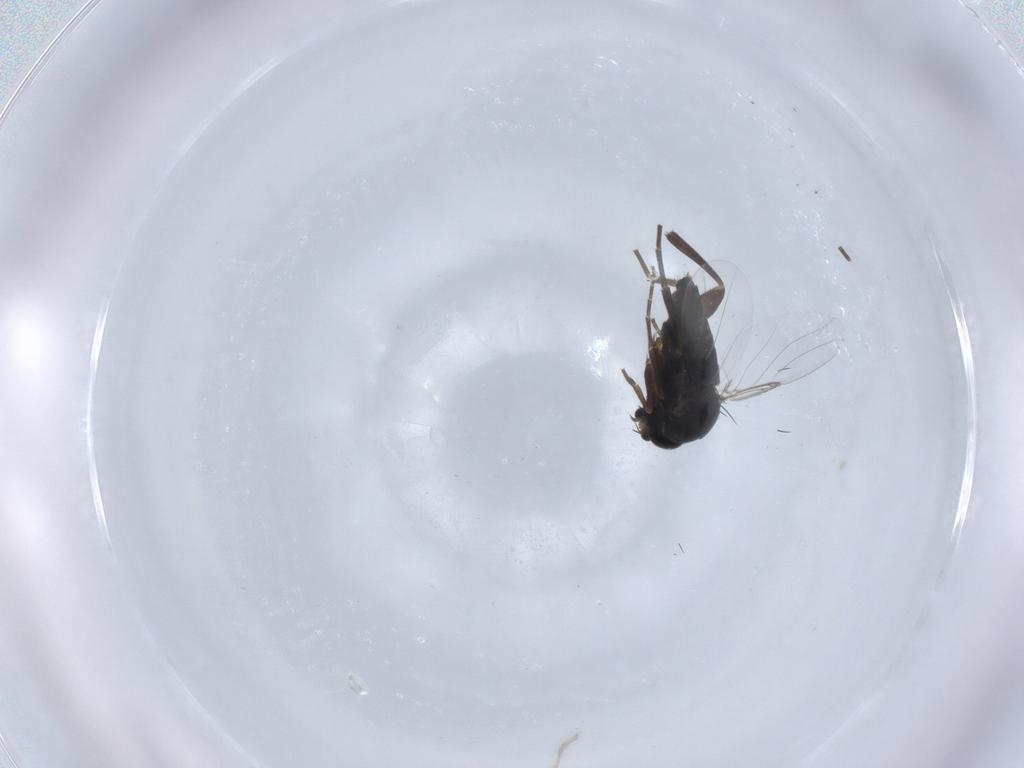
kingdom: Animalia
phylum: Arthropoda
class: Insecta
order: Diptera
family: Phoridae
